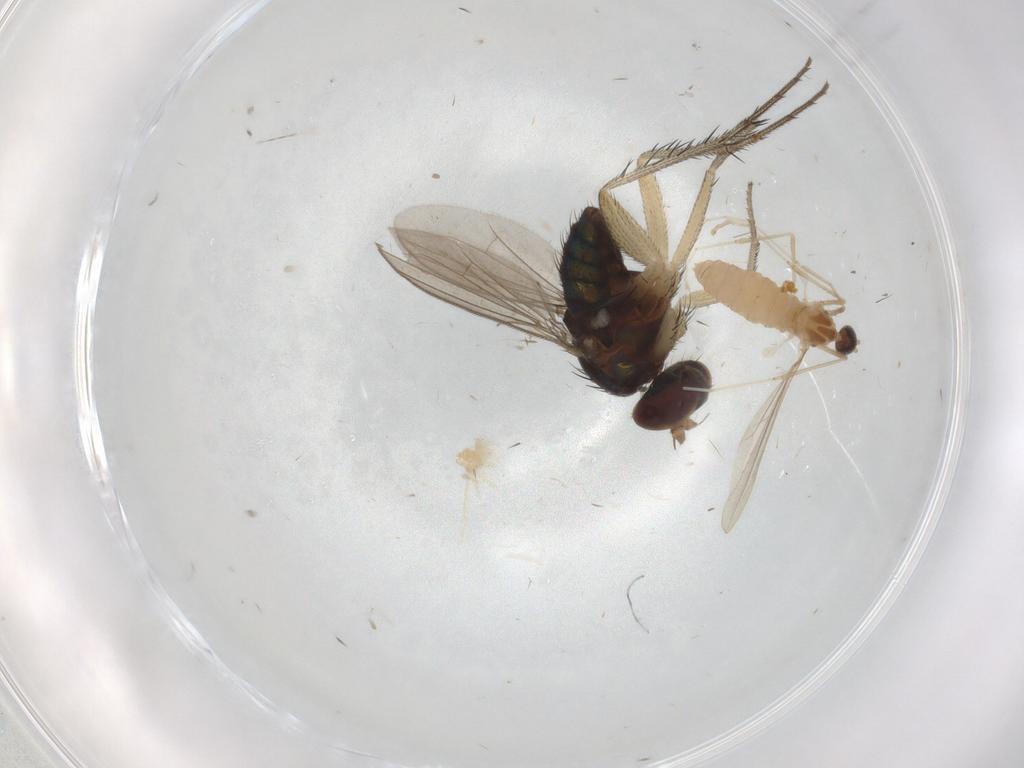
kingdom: Animalia
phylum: Arthropoda
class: Insecta
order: Diptera
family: Dolichopodidae
